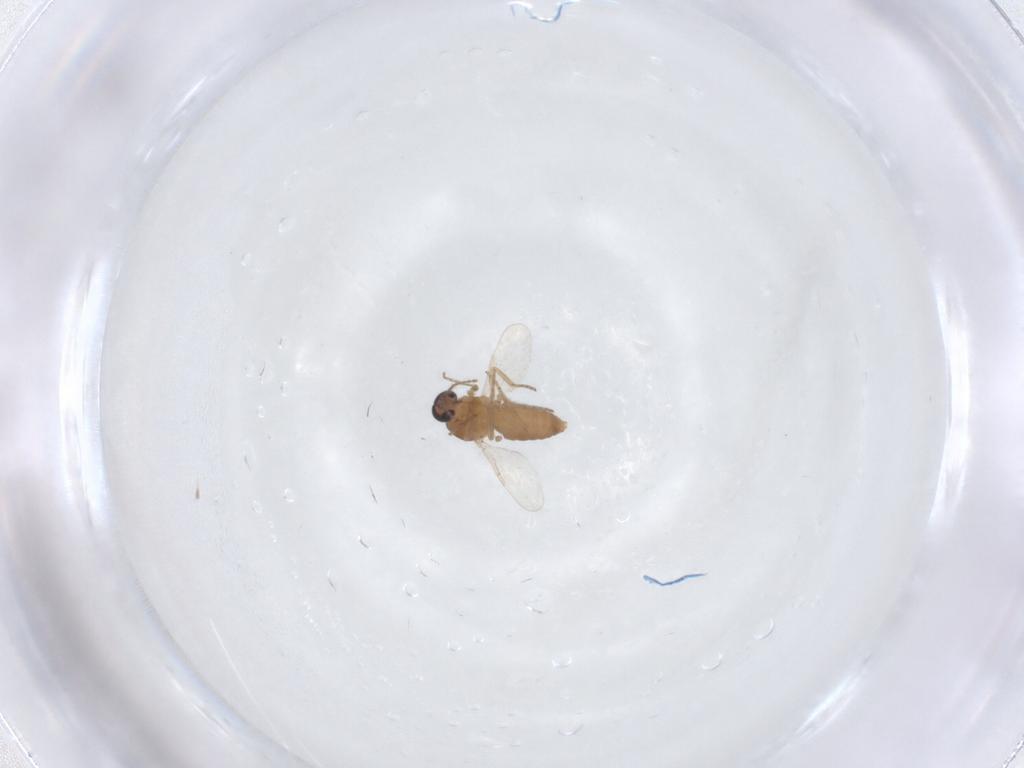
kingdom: Animalia
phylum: Arthropoda
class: Insecta
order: Diptera
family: Ceratopogonidae
